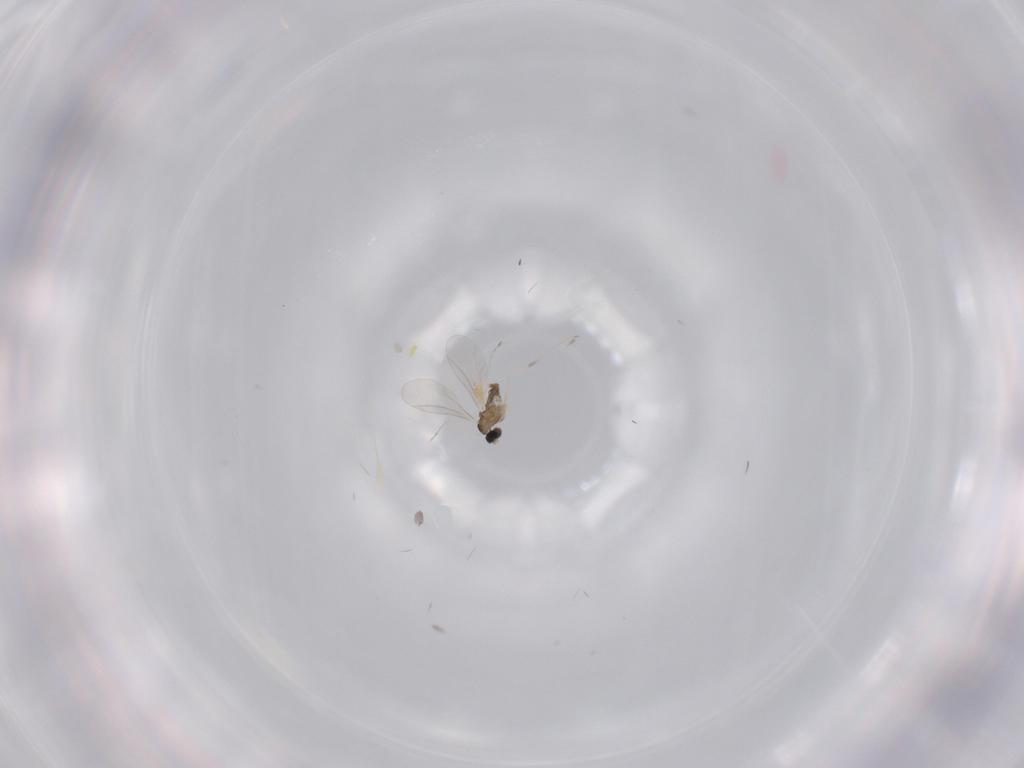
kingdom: Animalia
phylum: Arthropoda
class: Insecta
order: Diptera
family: Cecidomyiidae
